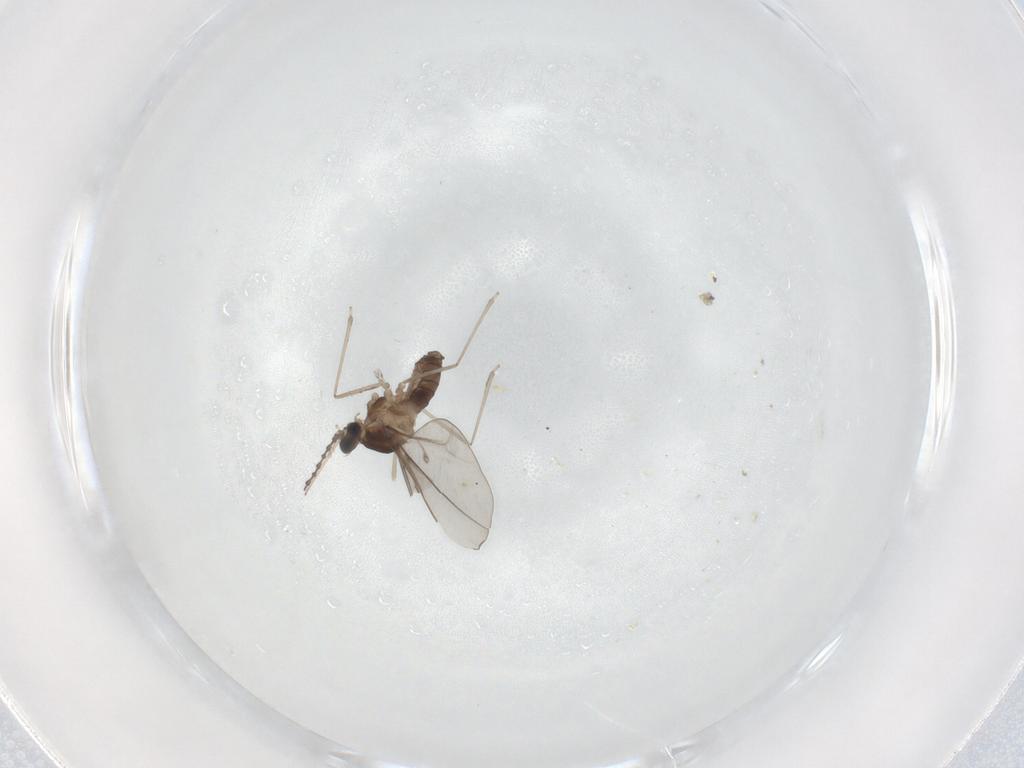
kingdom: Animalia
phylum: Arthropoda
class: Insecta
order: Diptera
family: Cecidomyiidae
